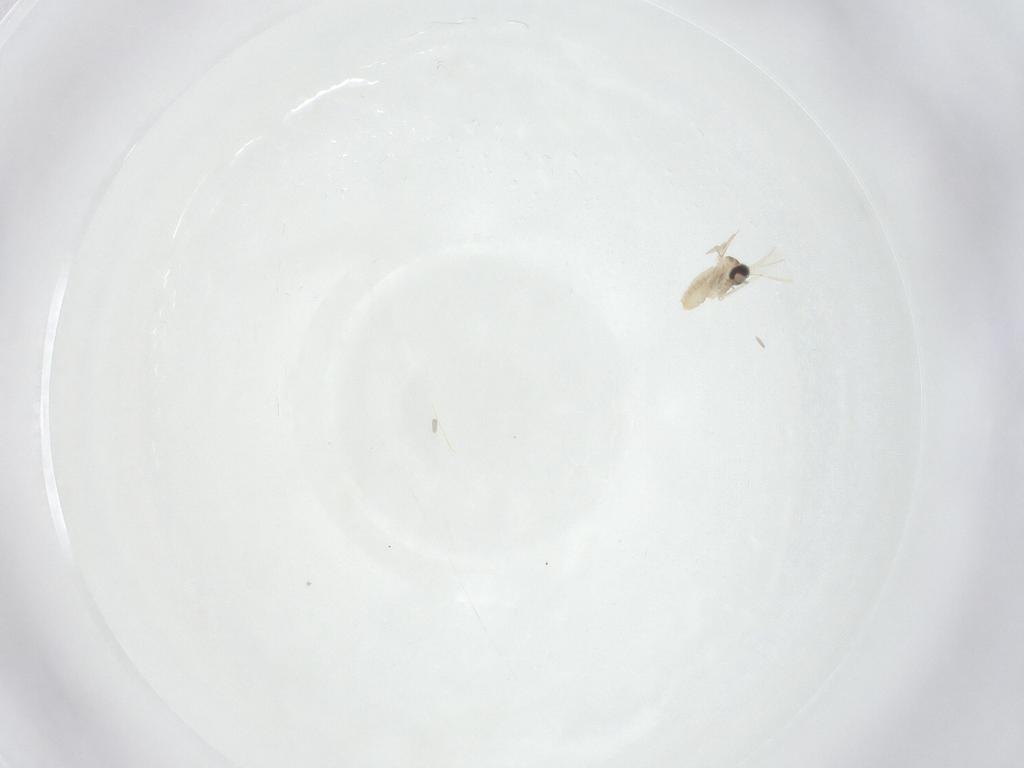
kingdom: Animalia
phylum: Arthropoda
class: Insecta
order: Diptera
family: Cecidomyiidae
